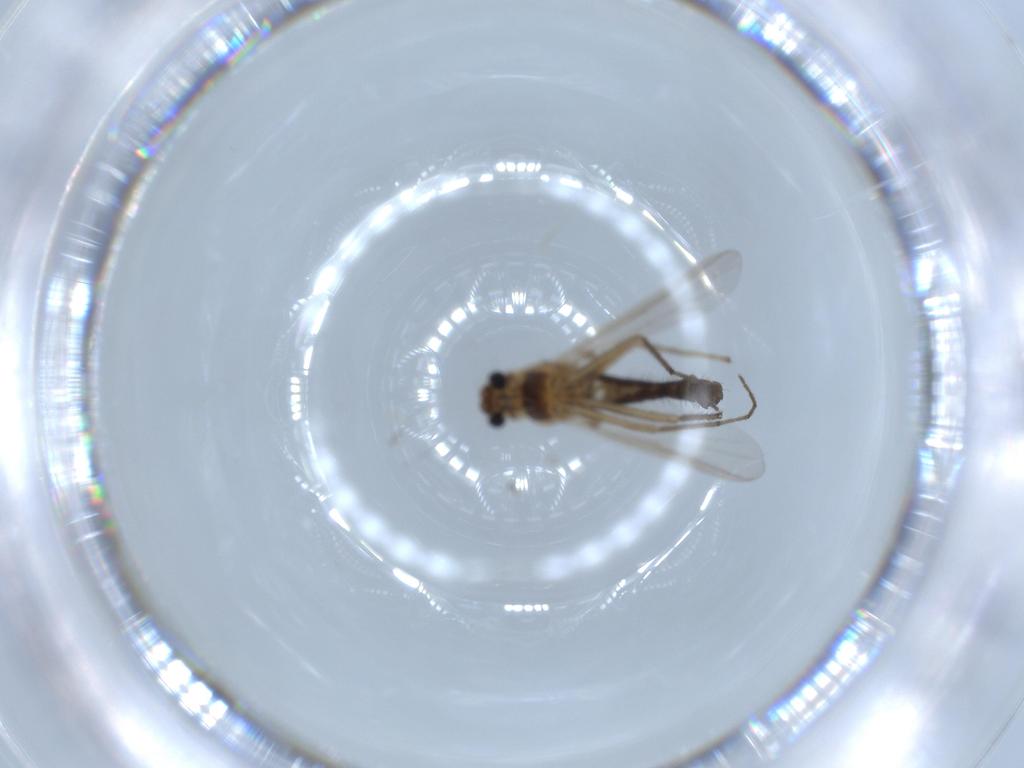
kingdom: Animalia
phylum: Arthropoda
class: Insecta
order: Diptera
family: Chironomidae
